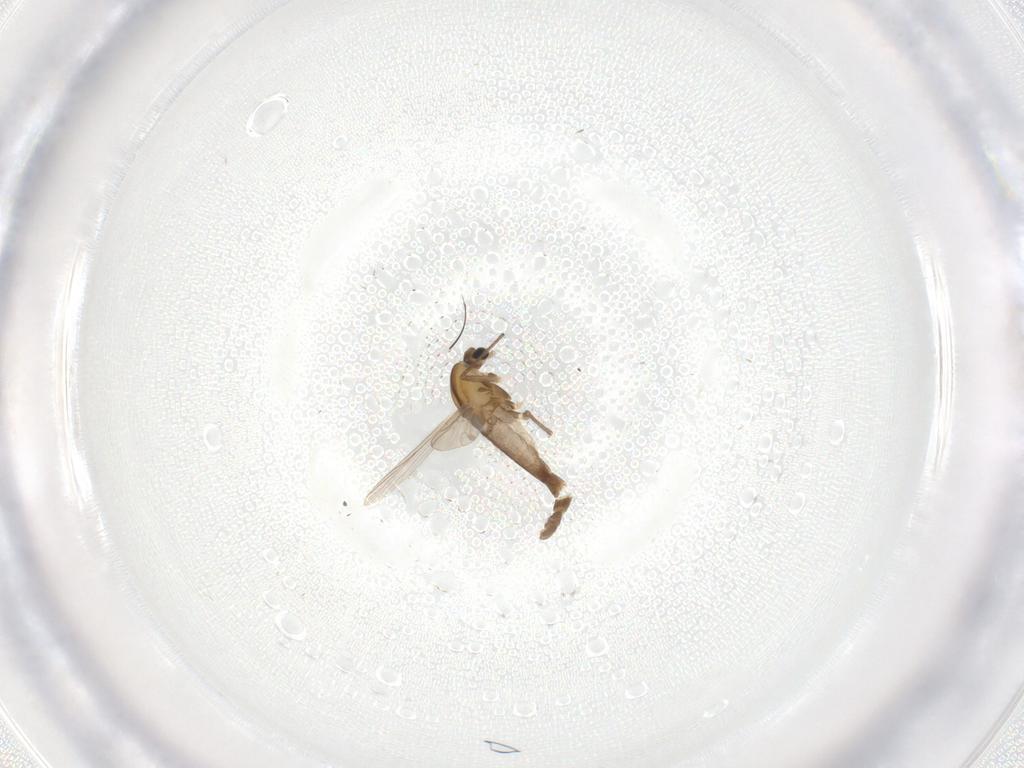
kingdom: Animalia
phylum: Arthropoda
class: Insecta
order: Diptera
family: Chironomidae
